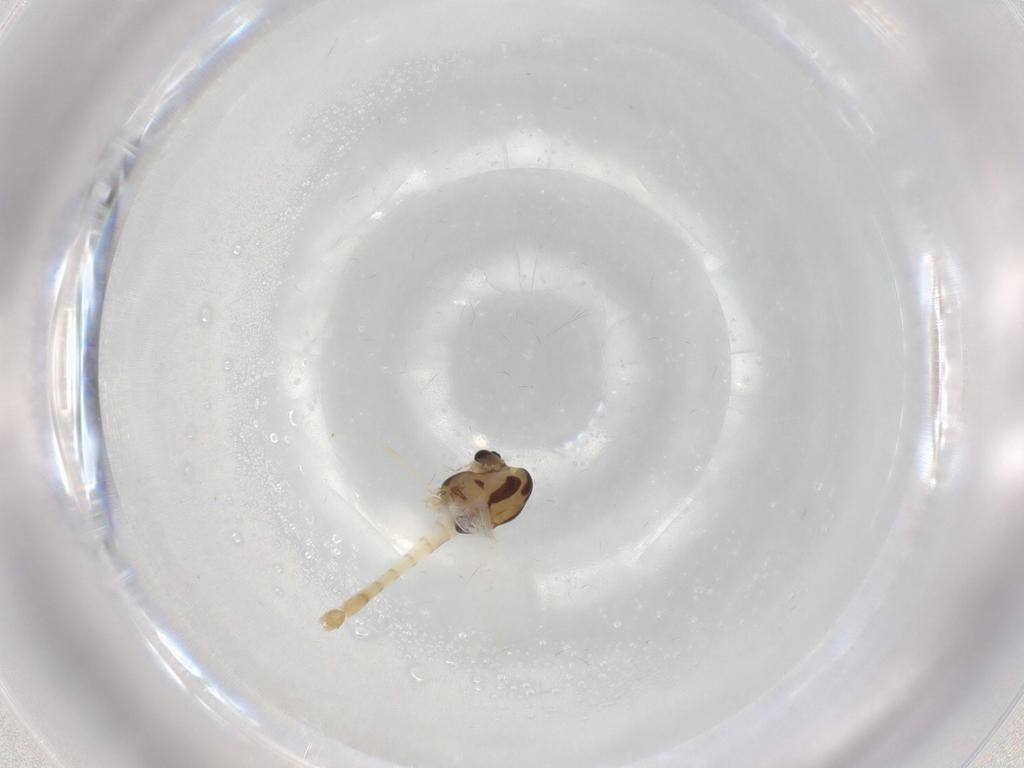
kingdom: Animalia
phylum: Arthropoda
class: Insecta
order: Diptera
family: Chironomidae
